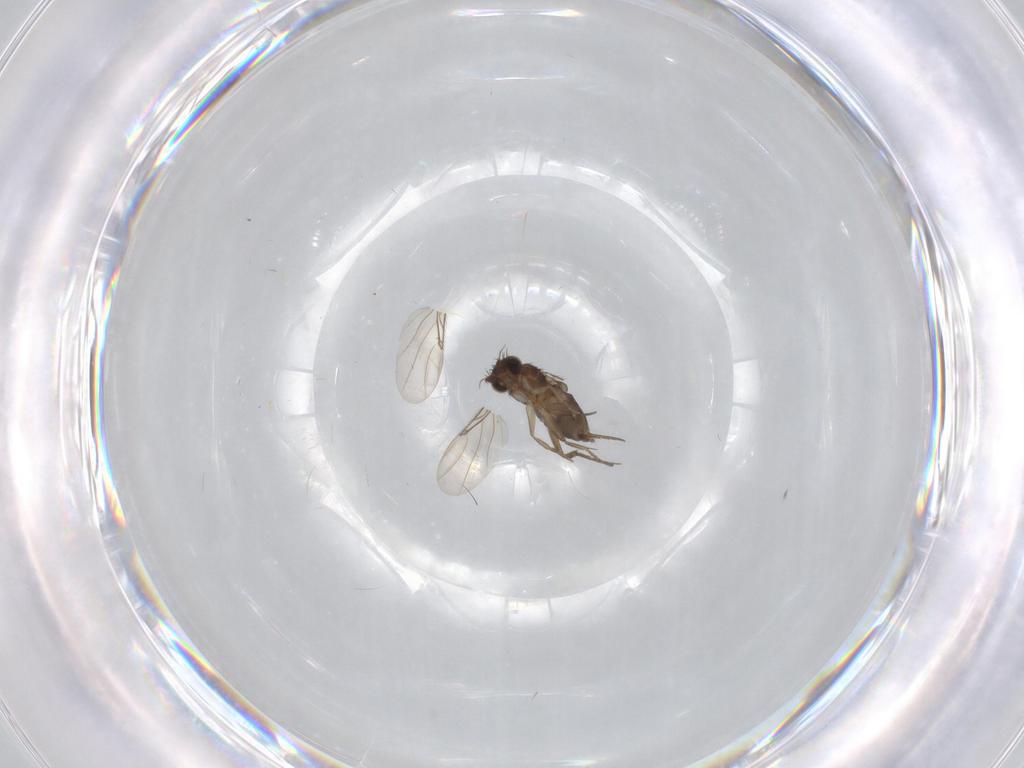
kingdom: Animalia
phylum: Arthropoda
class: Insecta
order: Diptera
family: Phoridae
